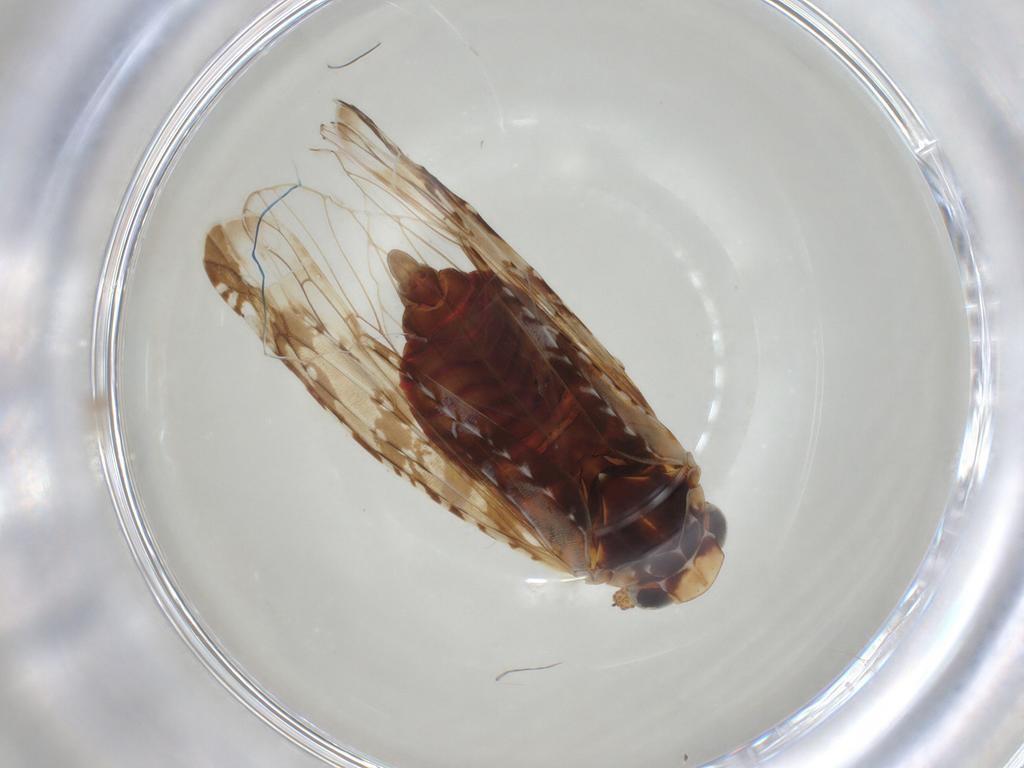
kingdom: Animalia
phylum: Arthropoda
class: Insecta
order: Hemiptera
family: Achilidae
